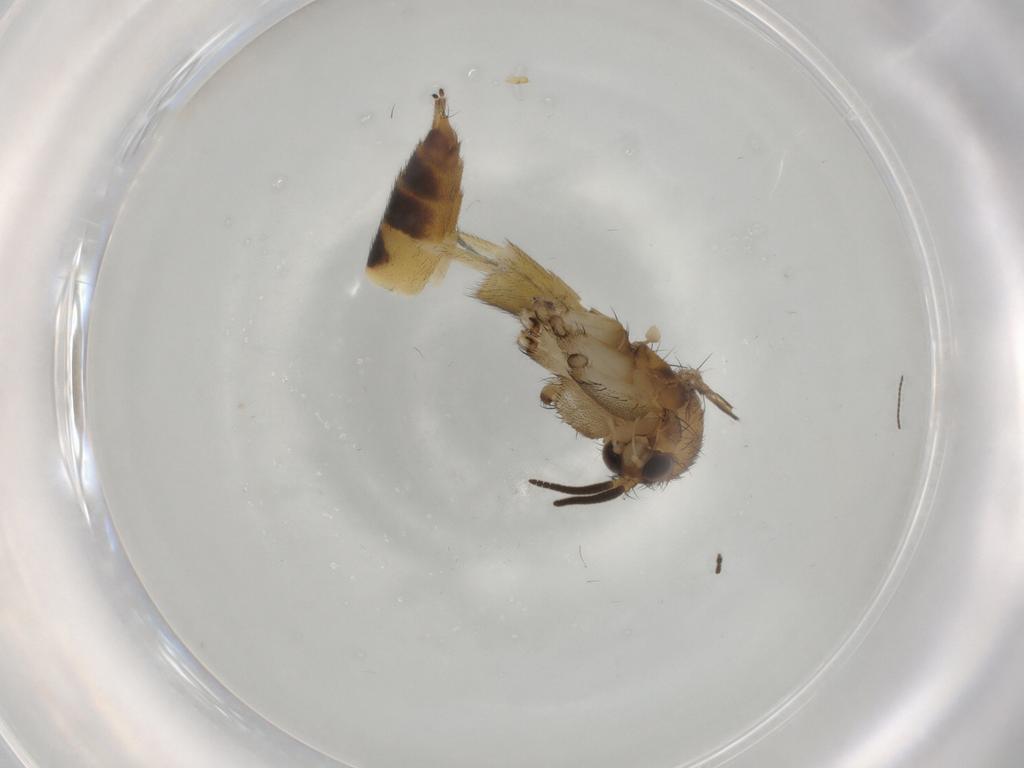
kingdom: Animalia
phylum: Arthropoda
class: Insecta
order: Diptera
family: Mycetophilidae
